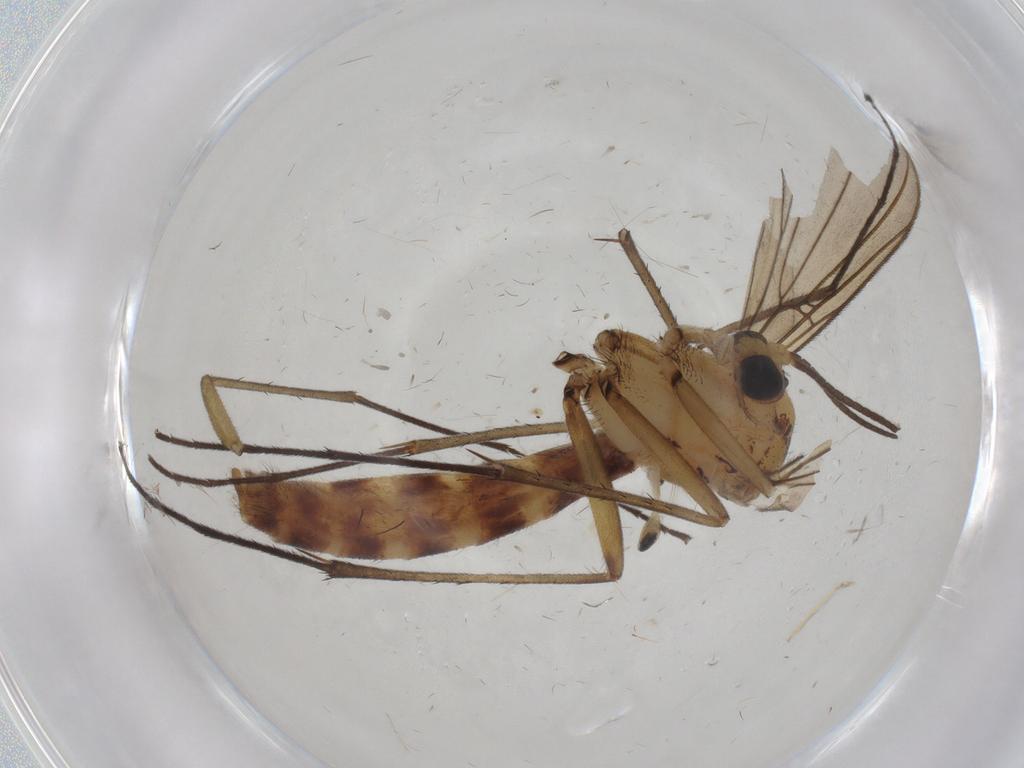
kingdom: Animalia
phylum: Arthropoda
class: Insecta
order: Diptera
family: Mycetophilidae
